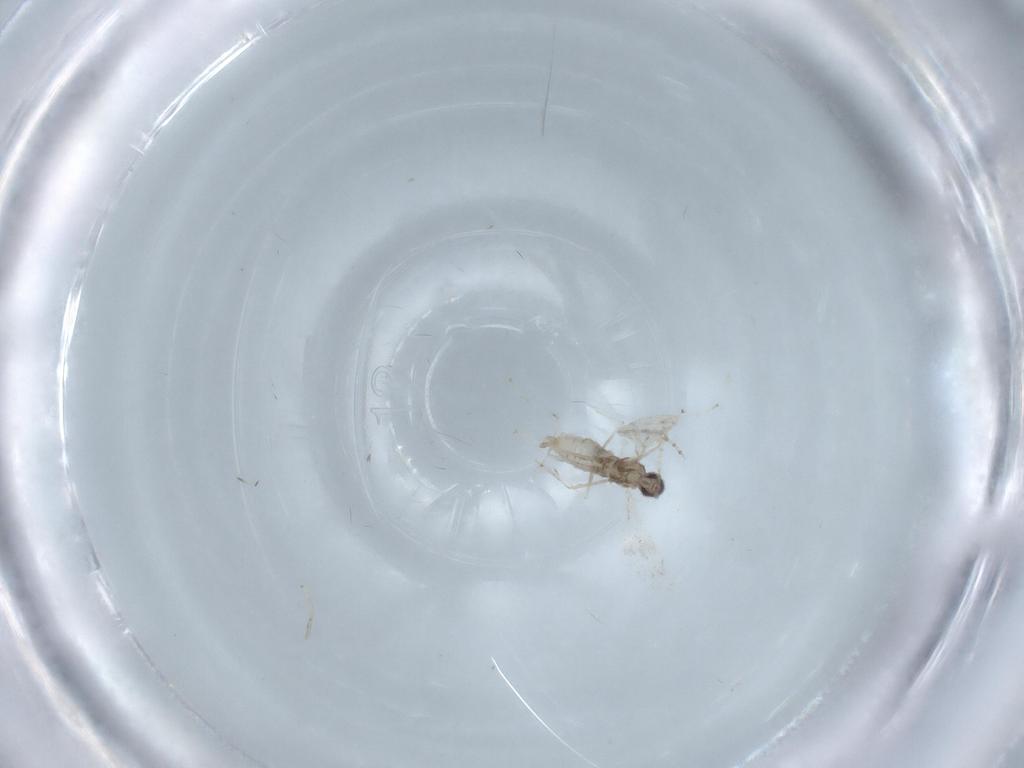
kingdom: Animalia
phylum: Arthropoda
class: Insecta
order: Diptera
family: Cecidomyiidae
